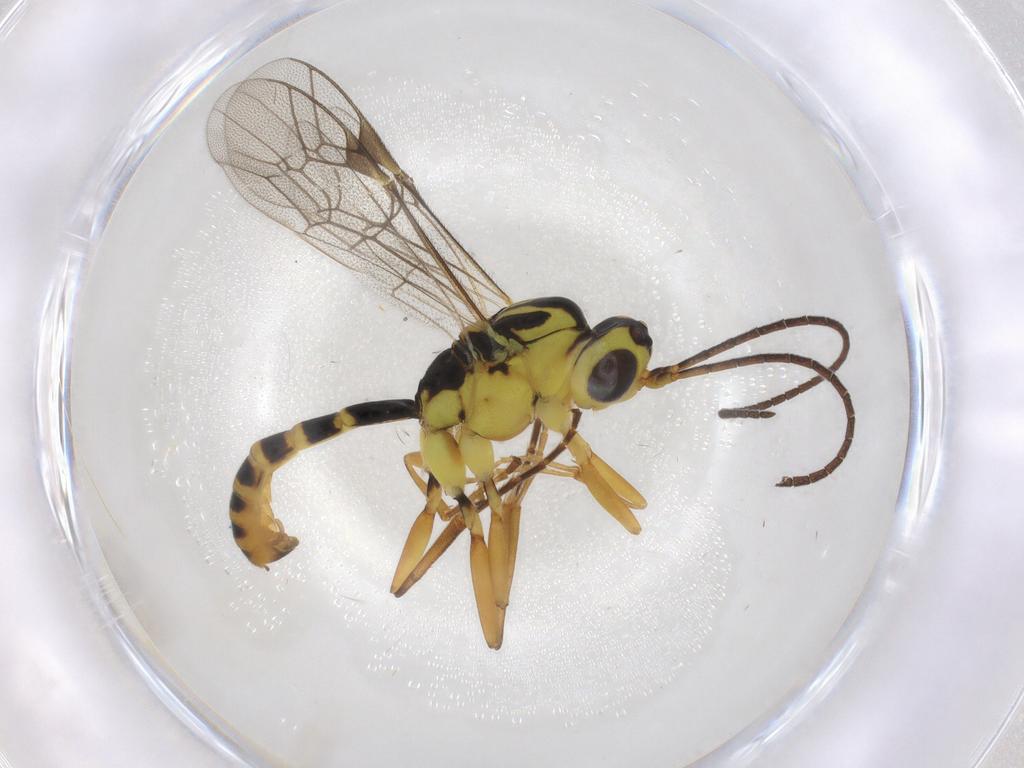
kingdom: Animalia
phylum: Arthropoda
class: Insecta
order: Hymenoptera
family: Ichneumonidae
